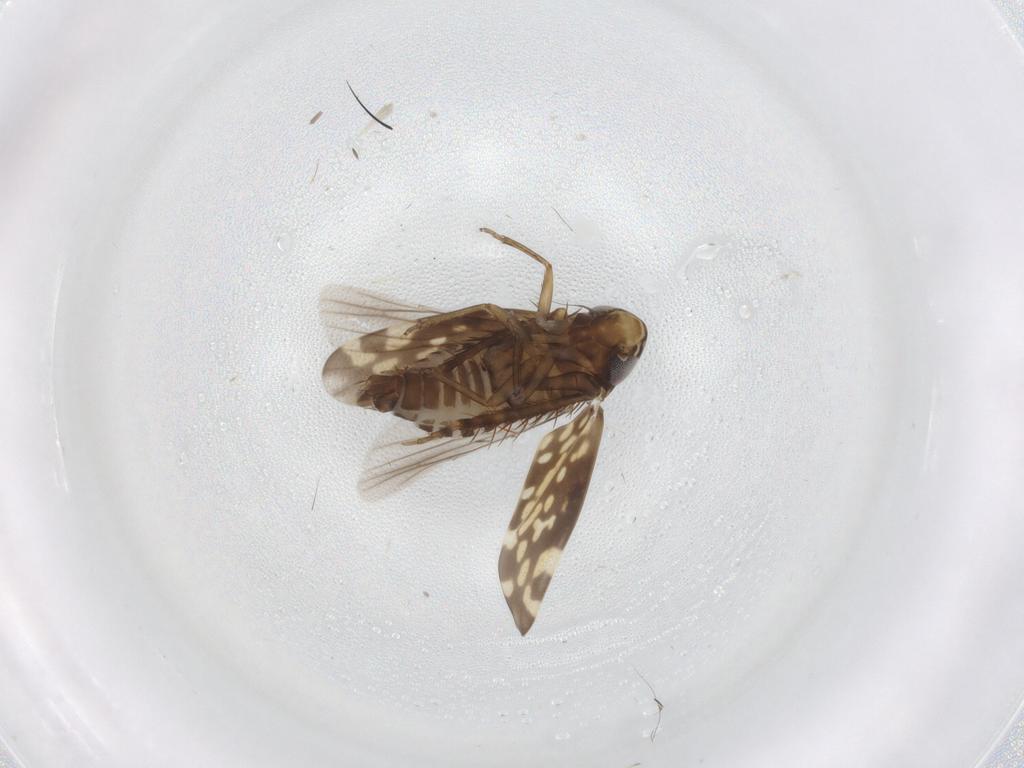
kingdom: Animalia
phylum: Arthropoda
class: Insecta
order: Hemiptera
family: Cicadellidae
